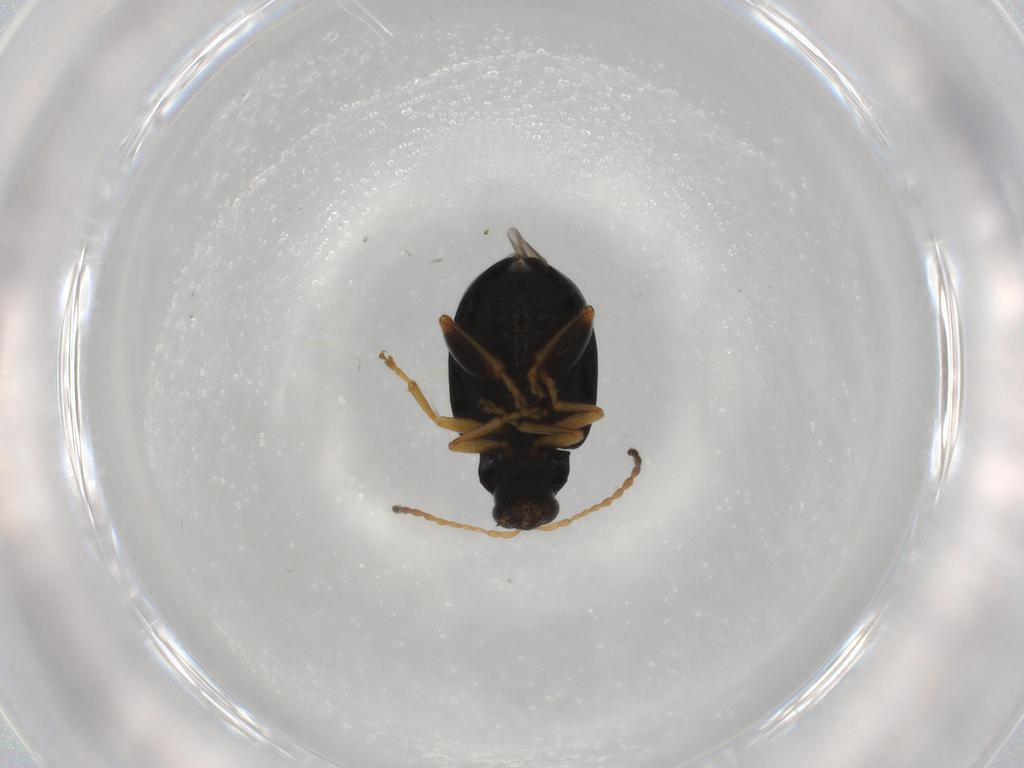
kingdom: Animalia
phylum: Arthropoda
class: Insecta
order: Coleoptera
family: Chrysomelidae
